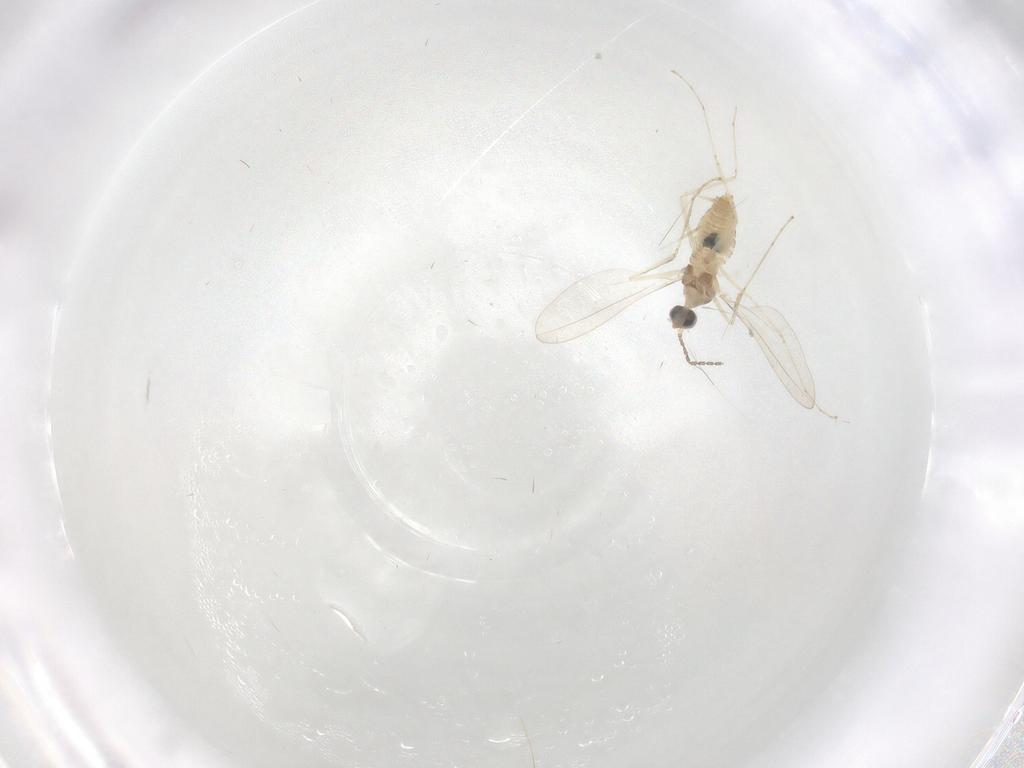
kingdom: Animalia
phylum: Arthropoda
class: Insecta
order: Diptera
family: Cecidomyiidae
